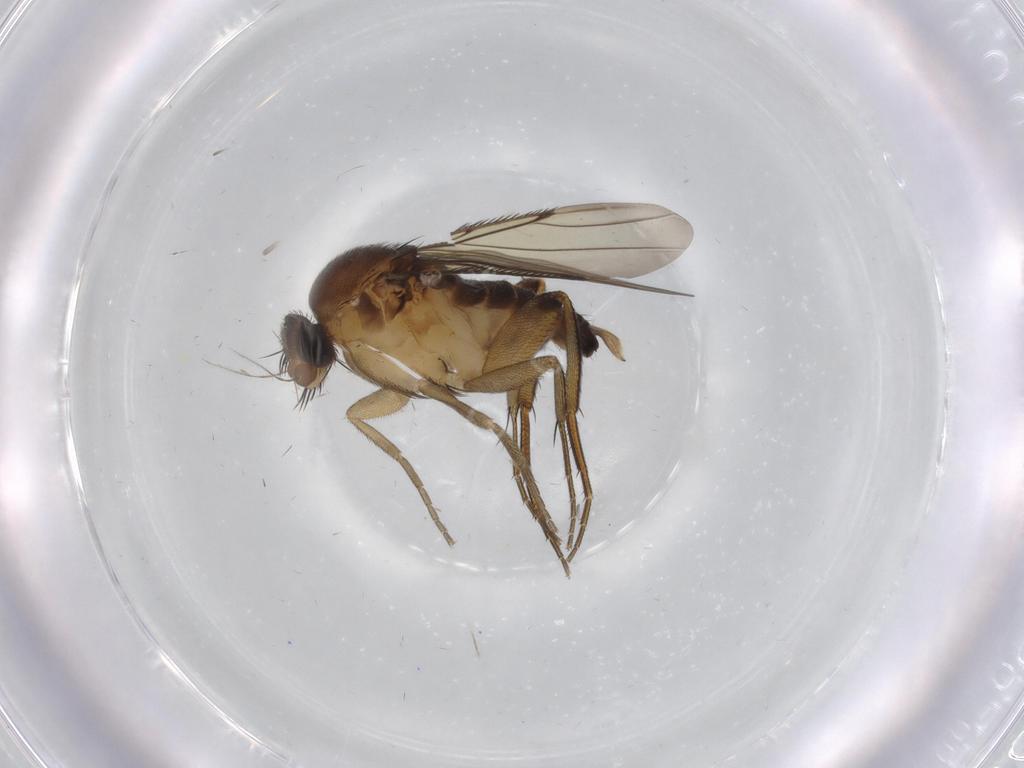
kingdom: Animalia
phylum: Arthropoda
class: Insecta
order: Diptera
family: Phoridae
